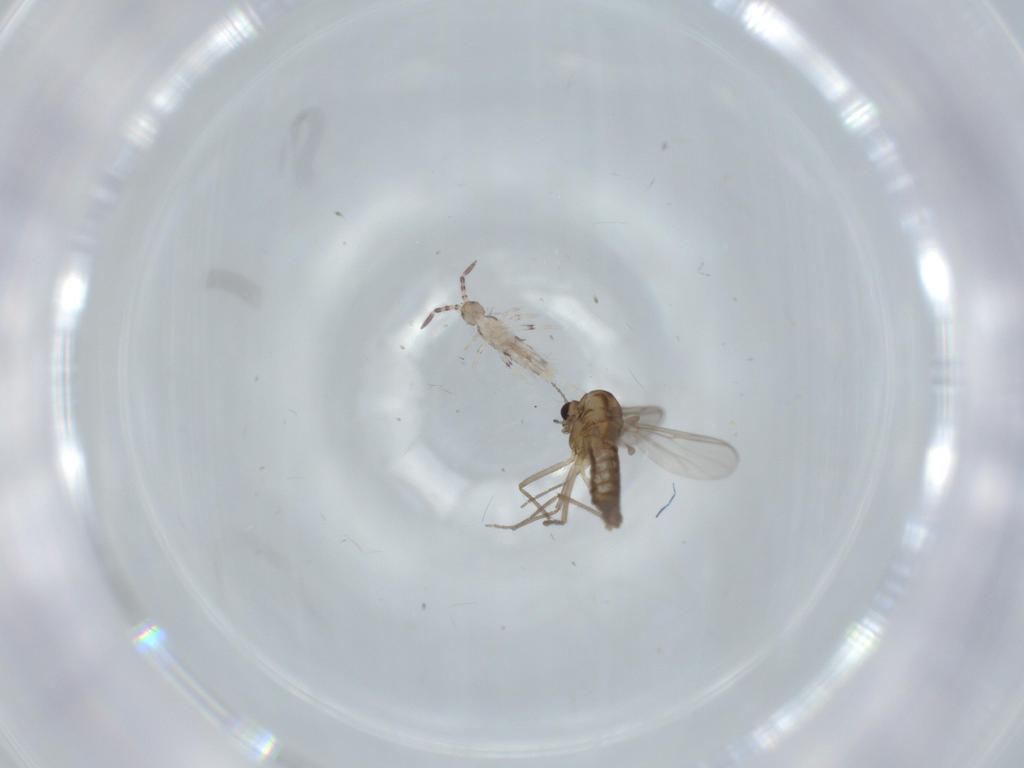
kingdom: Animalia
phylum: Arthropoda
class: Collembola
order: Entomobryomorpha
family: Entomobryidae
